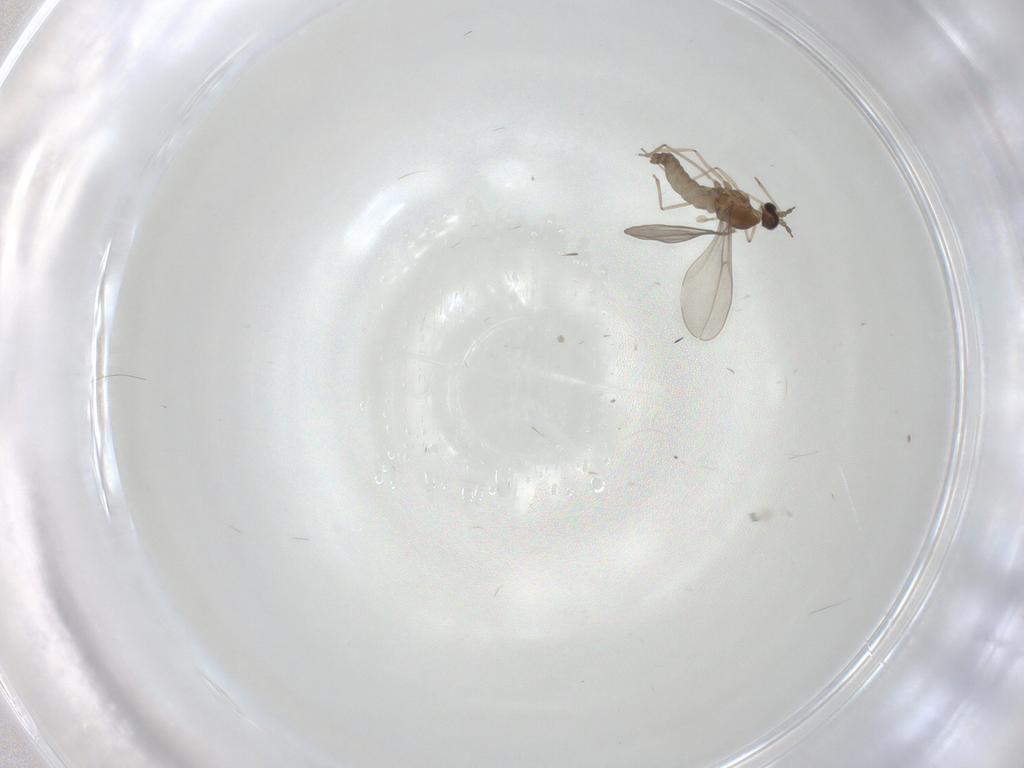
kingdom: Animalia
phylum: Arthropoda
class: Insecta
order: Diptera
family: Cecidomyiidae
